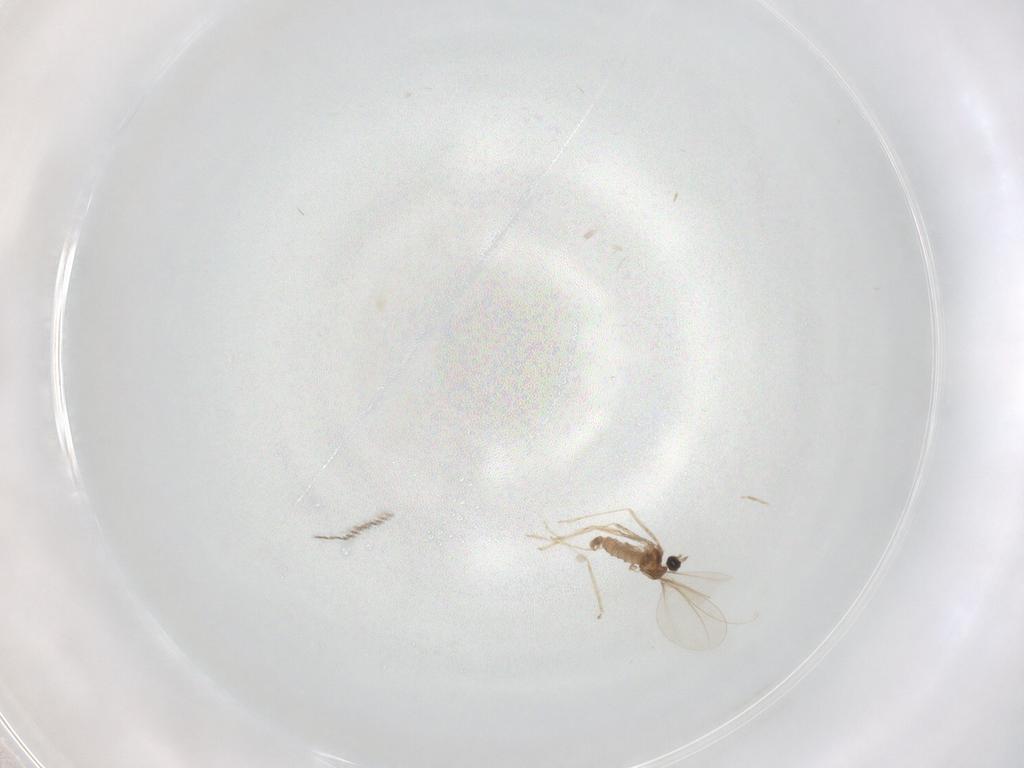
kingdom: Animalia
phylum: Arthropoda
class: Insecta
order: Diptera
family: Cecidomyiidae
